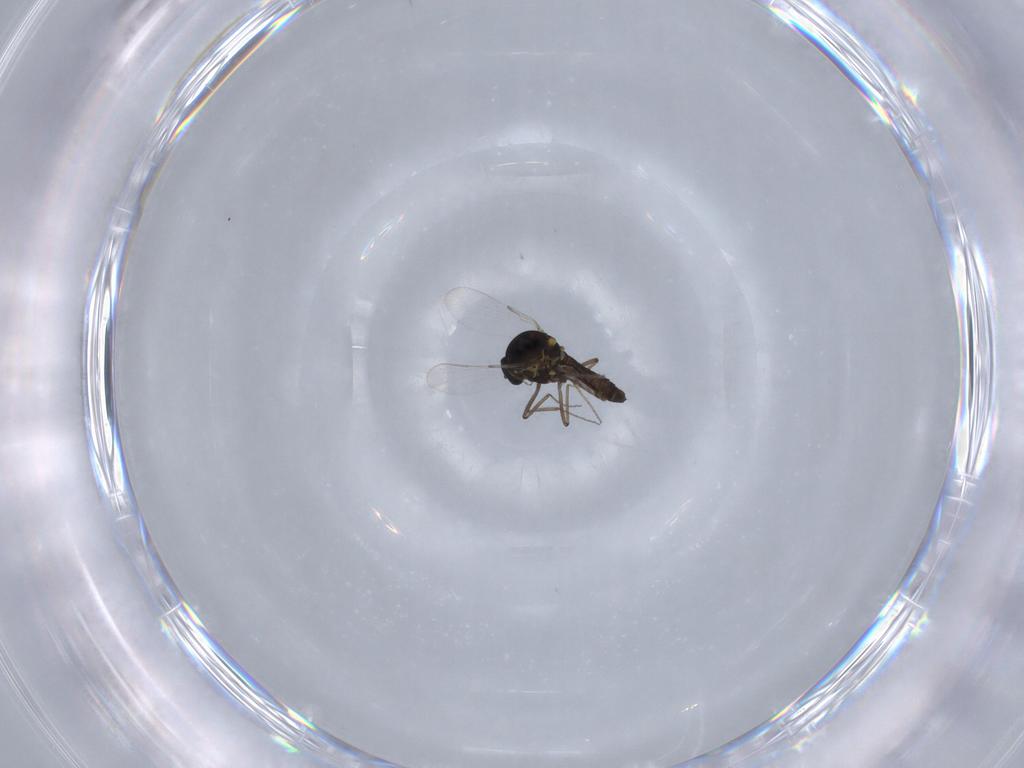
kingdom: Animalia
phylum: Arthropoda
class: Insecta
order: Diptera
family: Ceratopogonidae
